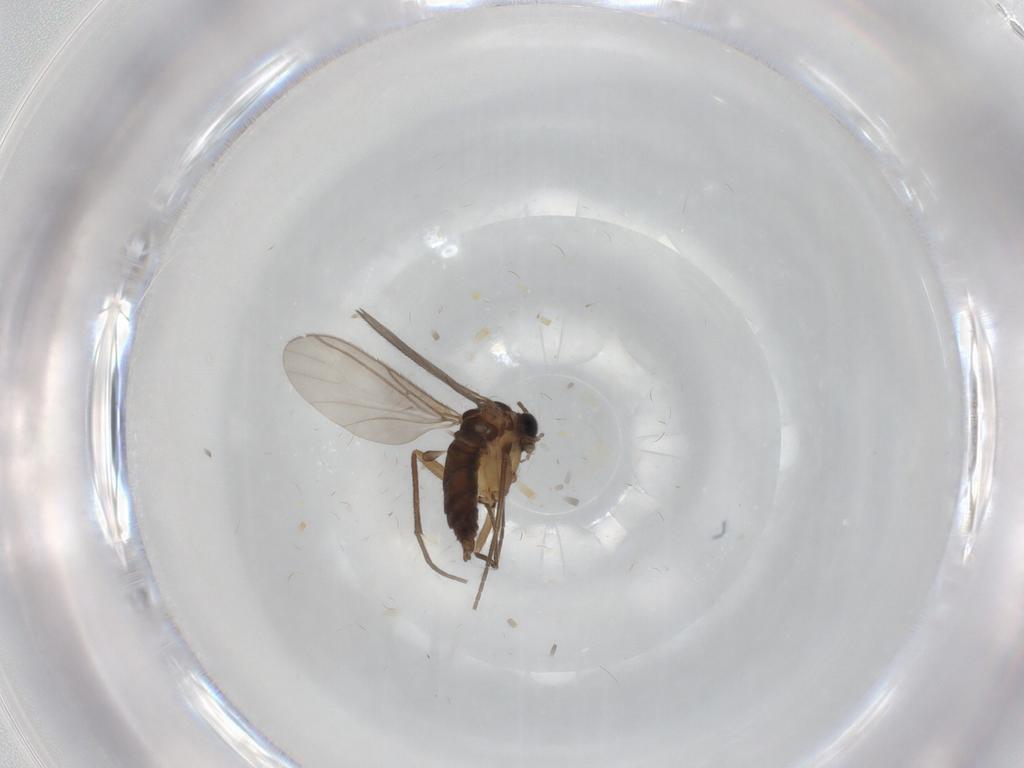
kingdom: Animalia
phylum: Arthropoda
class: Insecta
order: Diptera
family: Sciaridae
